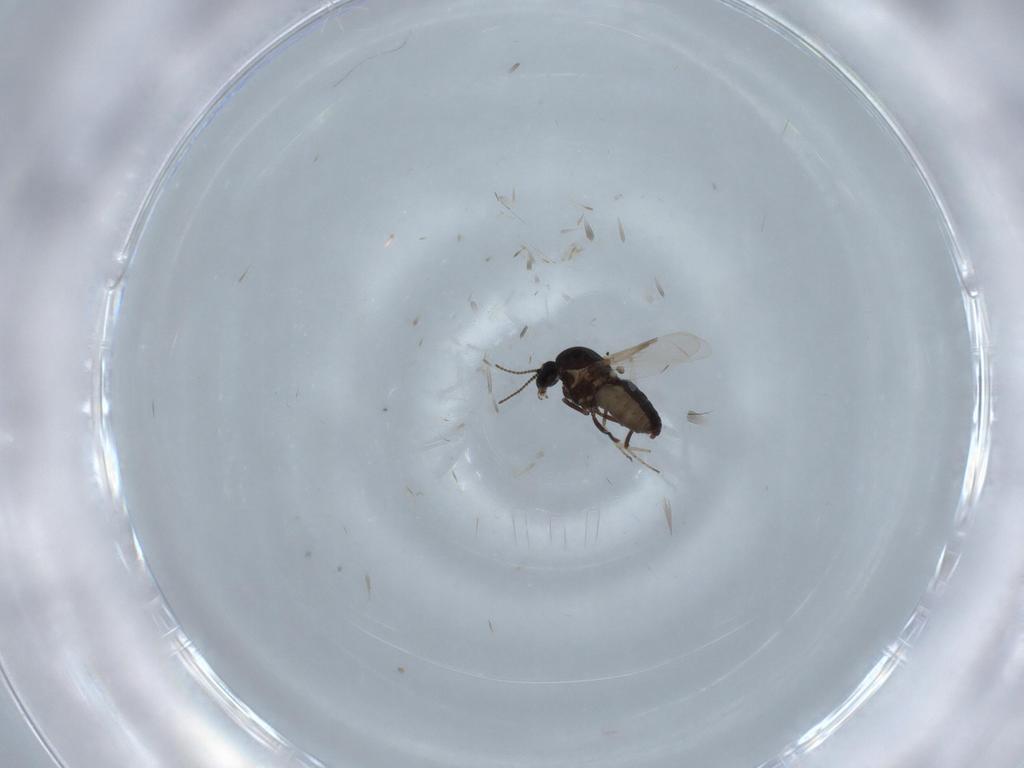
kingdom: Animalia
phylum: Arthropoda
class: Insecta
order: Diptera
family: Ceratopogonidae
